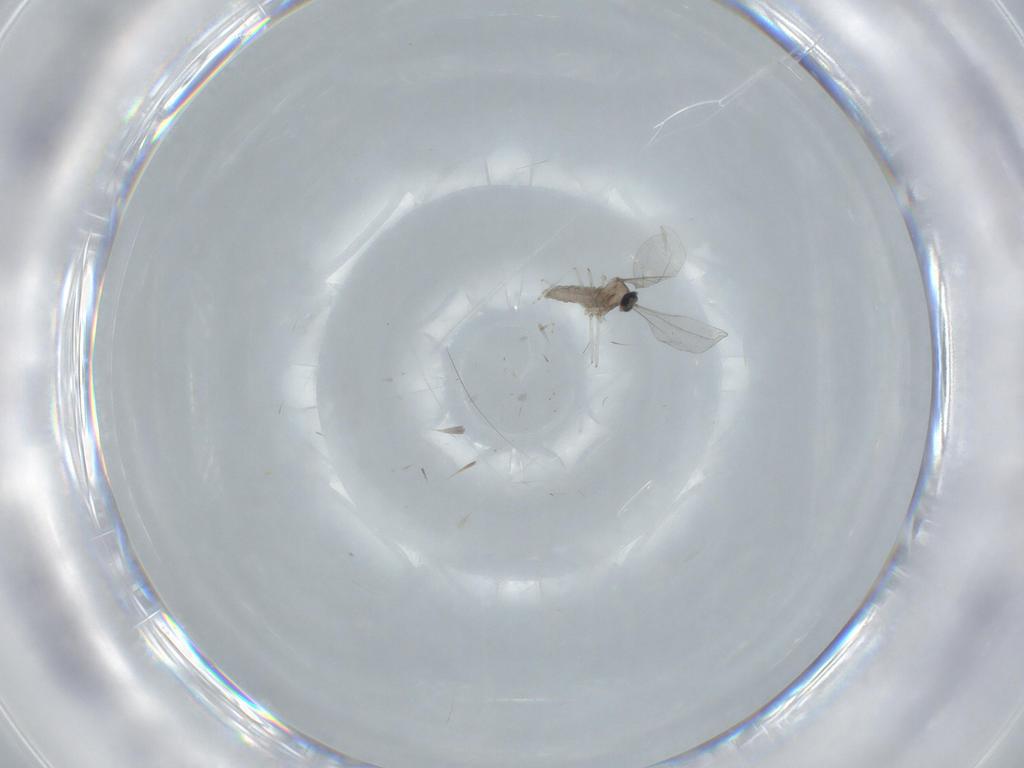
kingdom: Animalia
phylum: Arthropoda
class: Insecta
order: Diptera
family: Cecidomyiidae
